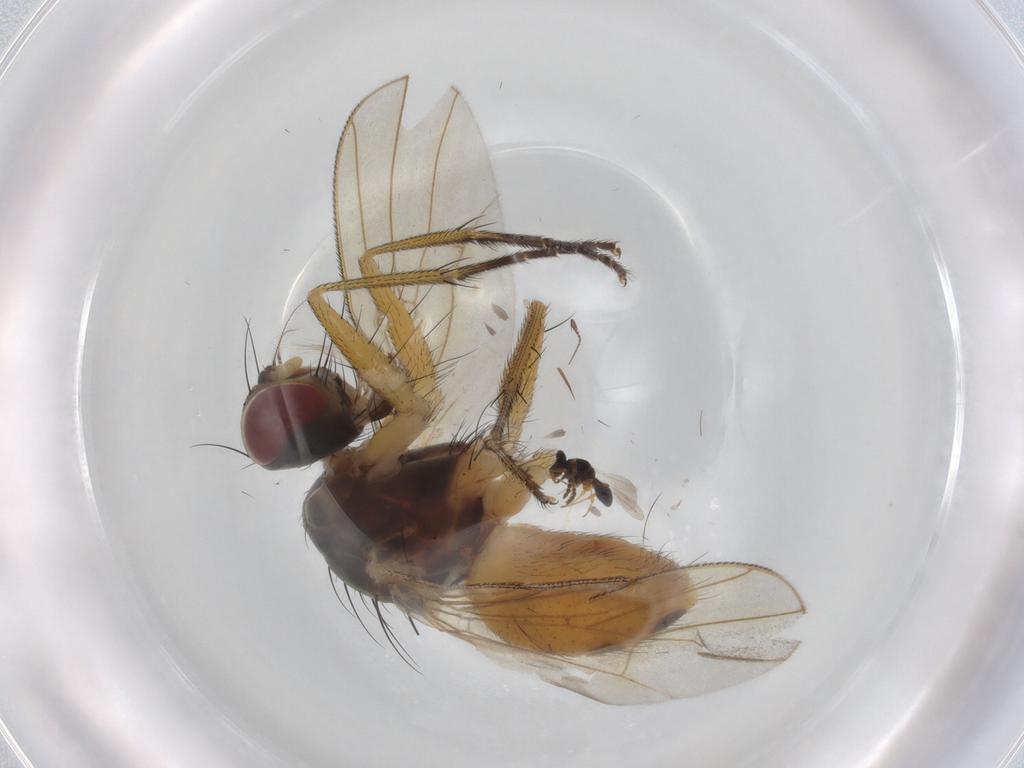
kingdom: Animalia
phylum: Arthropoda
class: Insecta
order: Diptera
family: Muscidae
